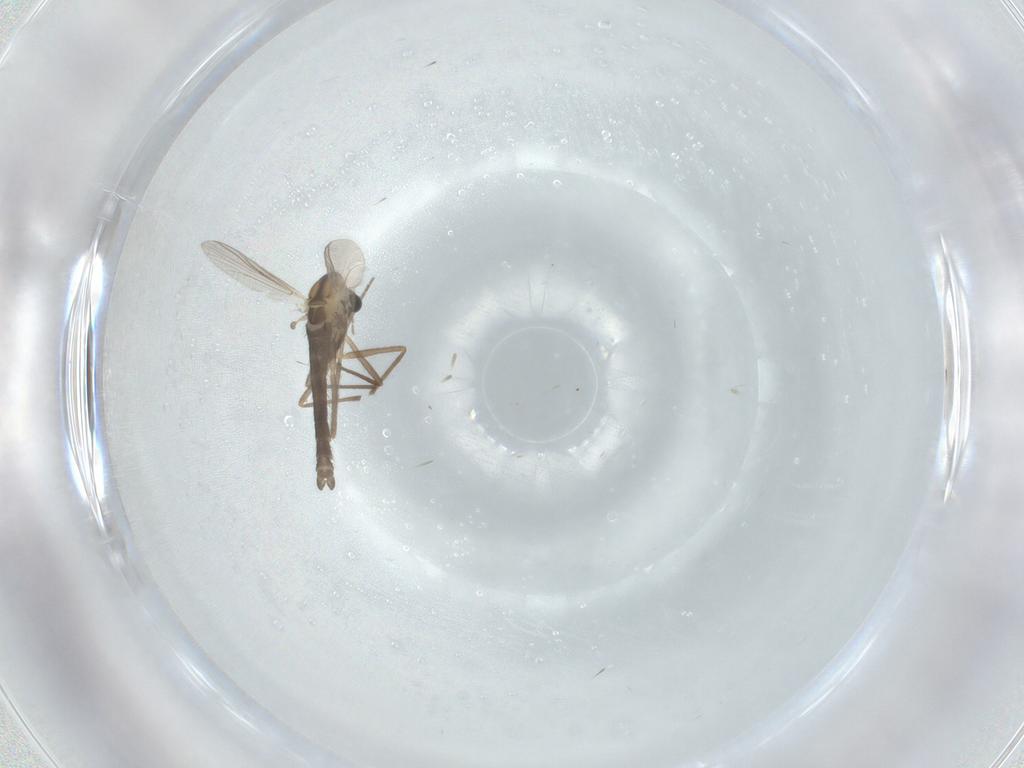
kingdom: Animalia
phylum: Arthropoda
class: Insecta
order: Diptera
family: Chironomidae
